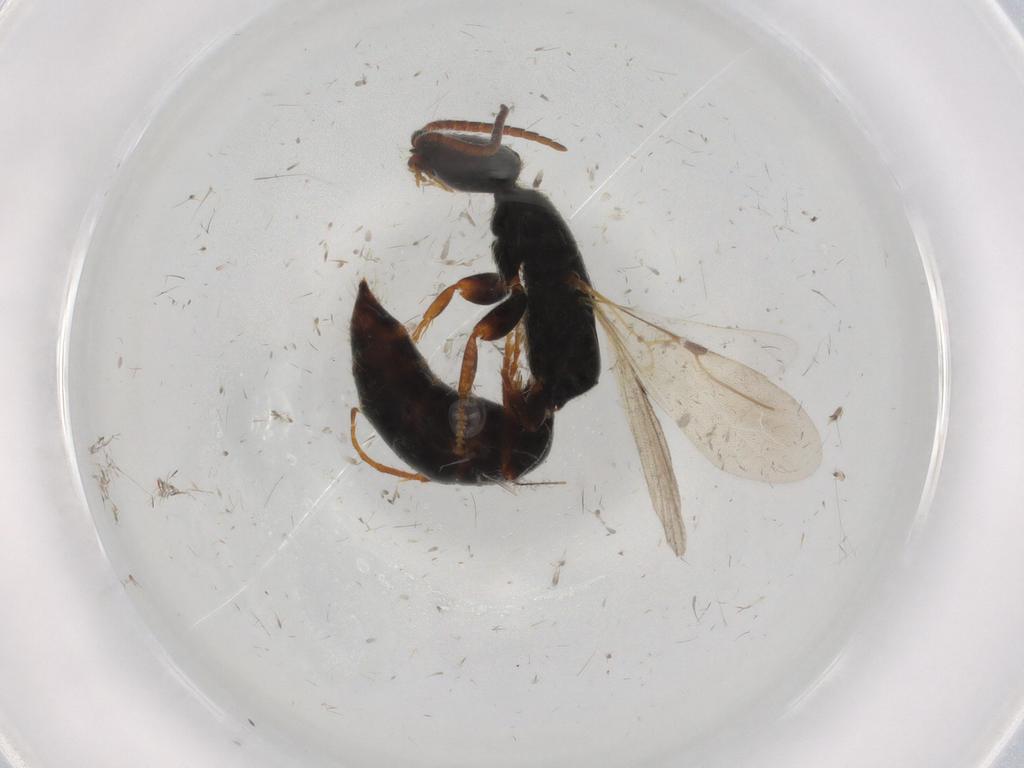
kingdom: Animalia
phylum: Arthropoda
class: Insecta
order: Hymenoptera
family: Bethylidae
